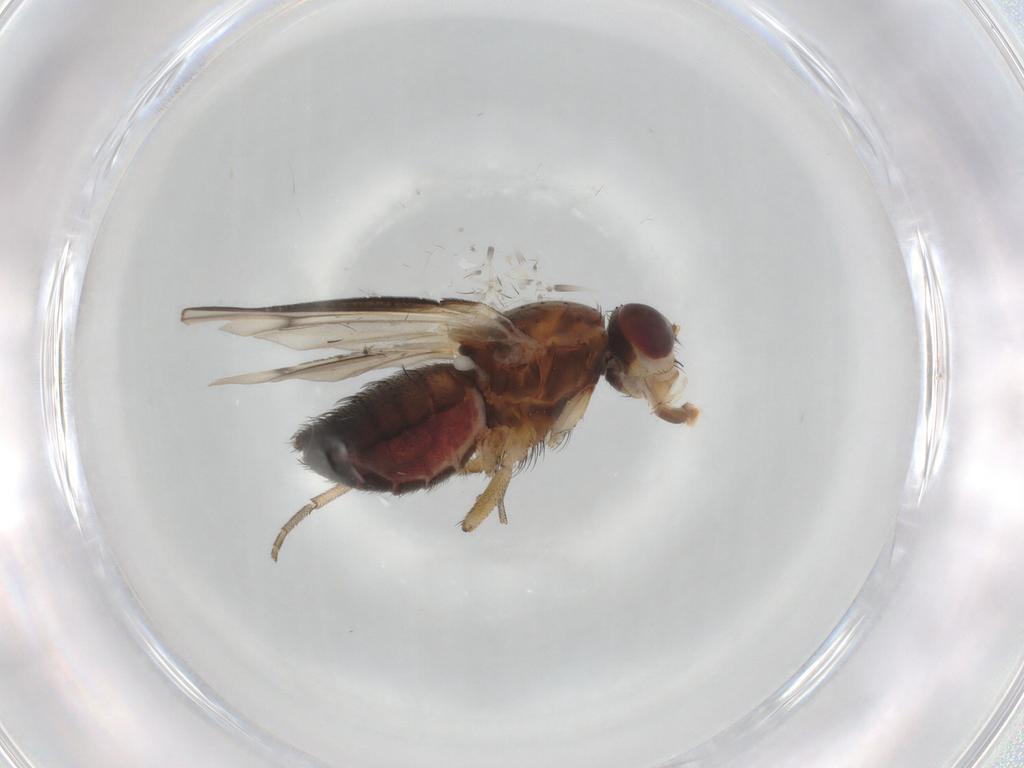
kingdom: Animalia
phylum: Arthropoda
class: Insecta
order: Diptera
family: Heleomyzidae
